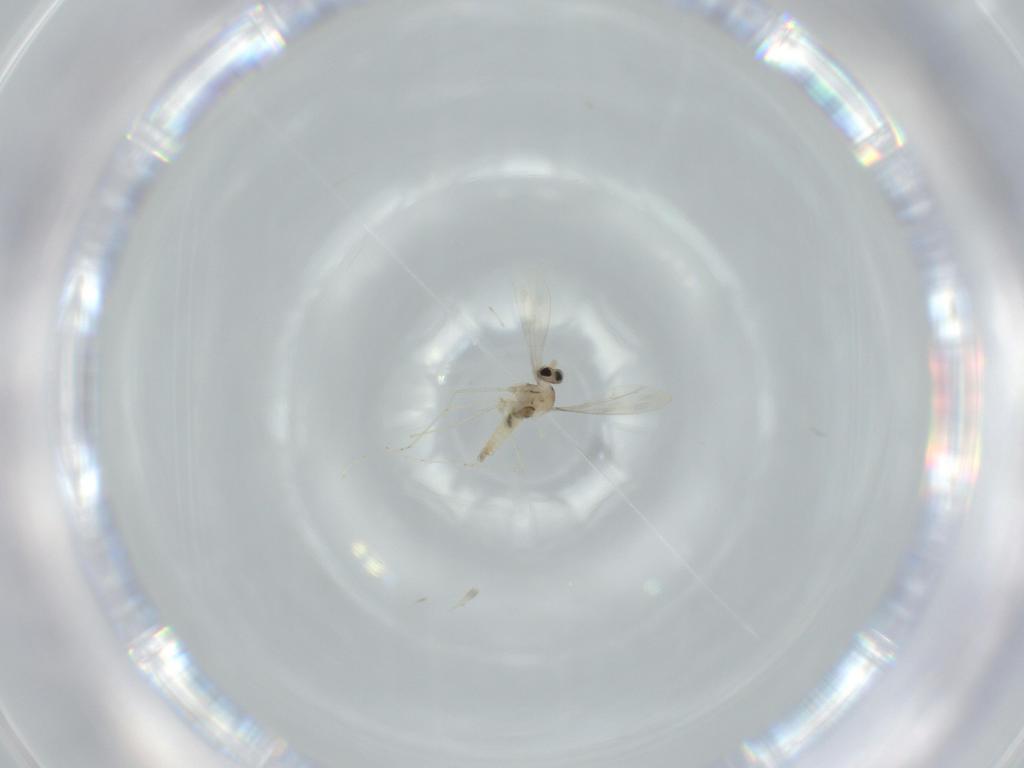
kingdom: Animalia
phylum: Arthropoda
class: Insecta
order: Diptera
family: Cecidomyiidae
